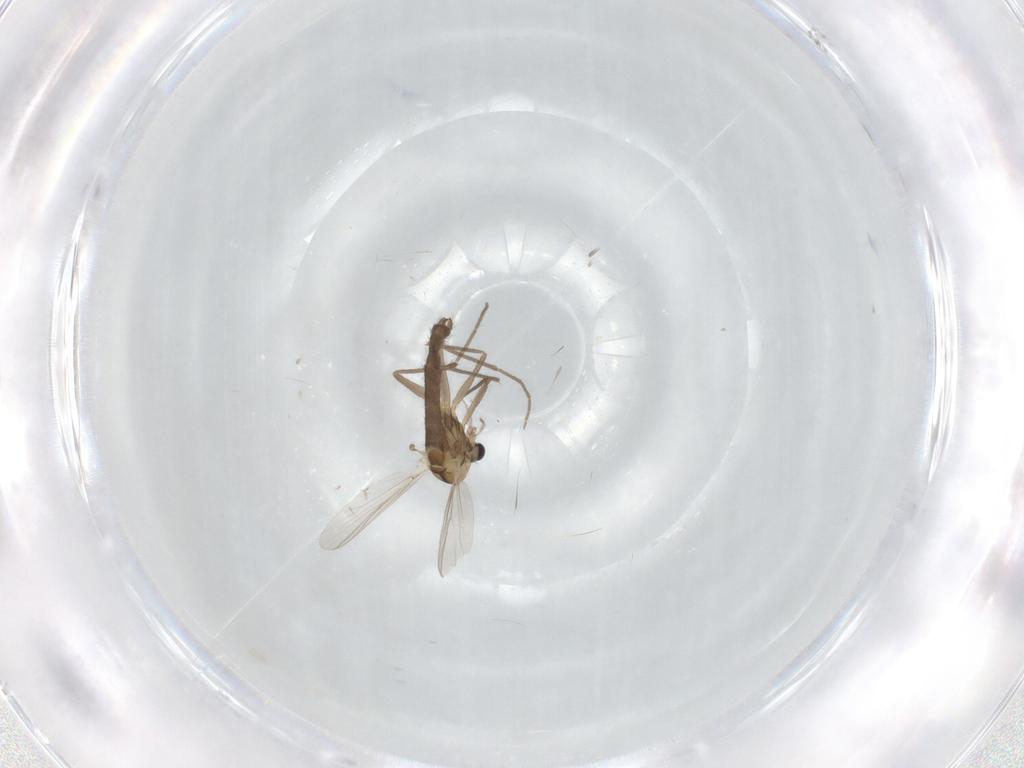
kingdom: Animalia
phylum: Arthropoda
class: Insecta
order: Diptera
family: Chironomidae
